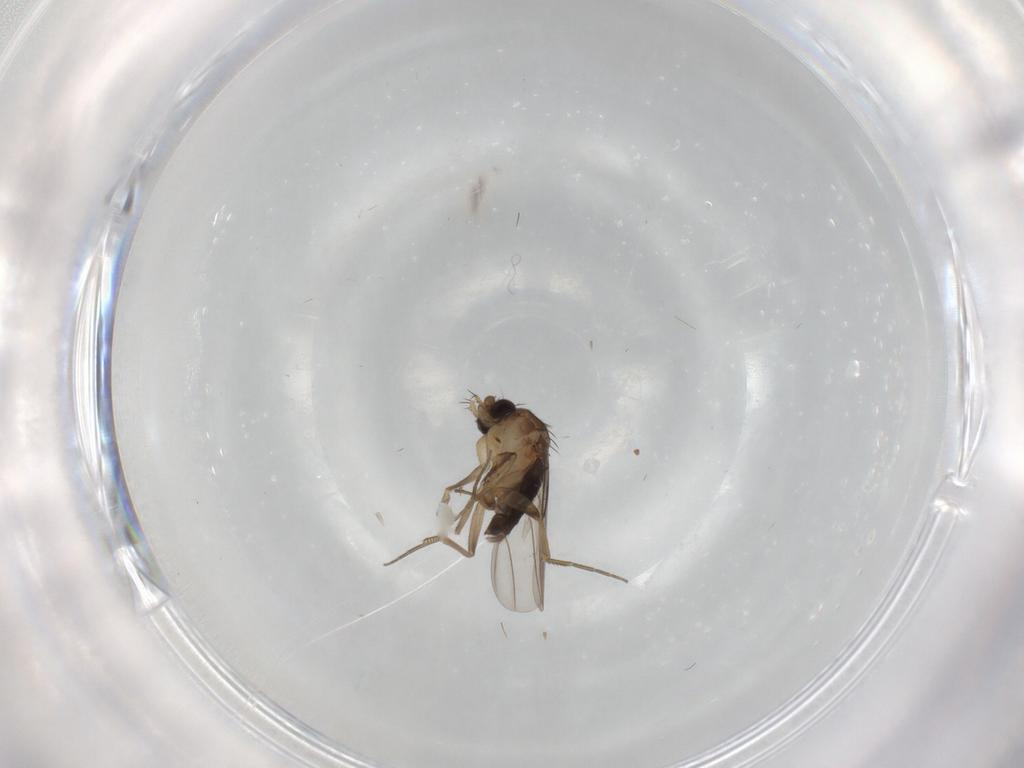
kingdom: Animalia
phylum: Arthropoda
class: Insecta
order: Diptera
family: Phoridae
